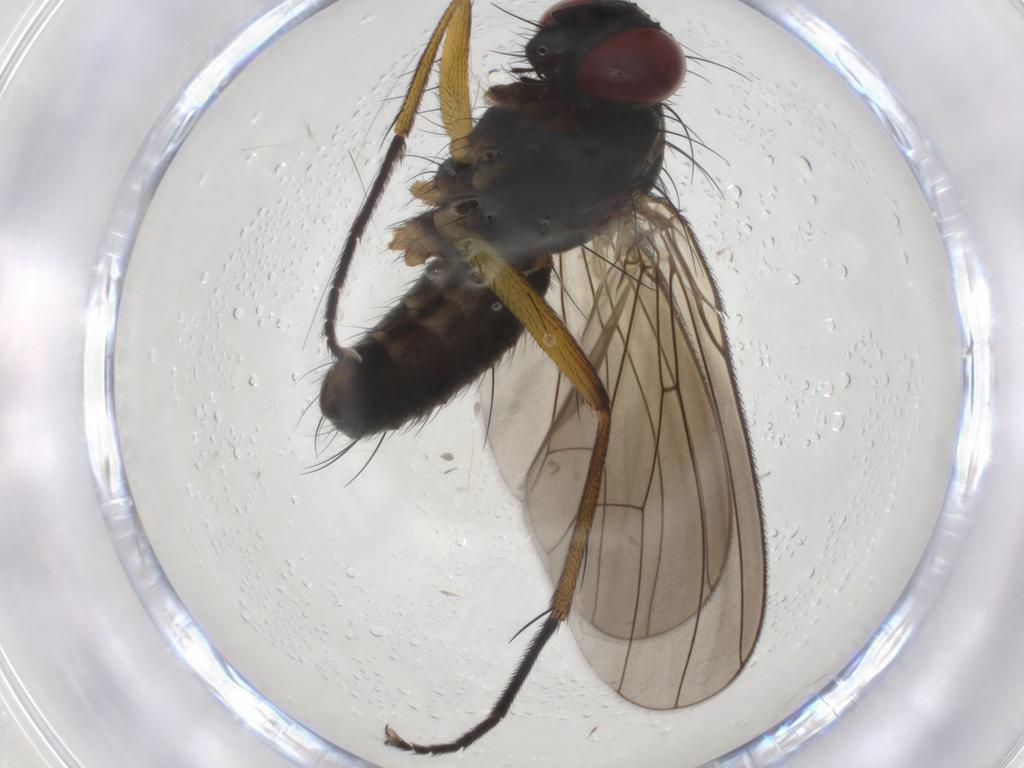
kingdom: Animalia
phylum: Arthropoda
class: Insecta
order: Diptera
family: Muscidae
